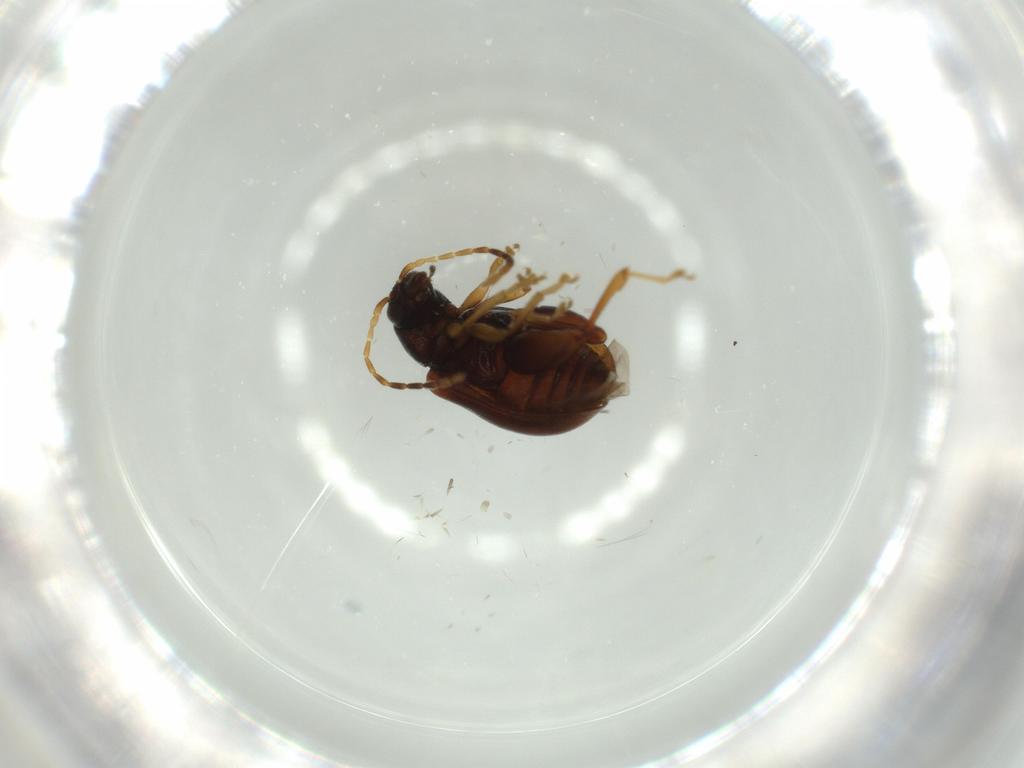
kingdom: Animalia
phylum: Arthropoda
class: Insecta
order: Coleoptera
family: Chrysomelidae
